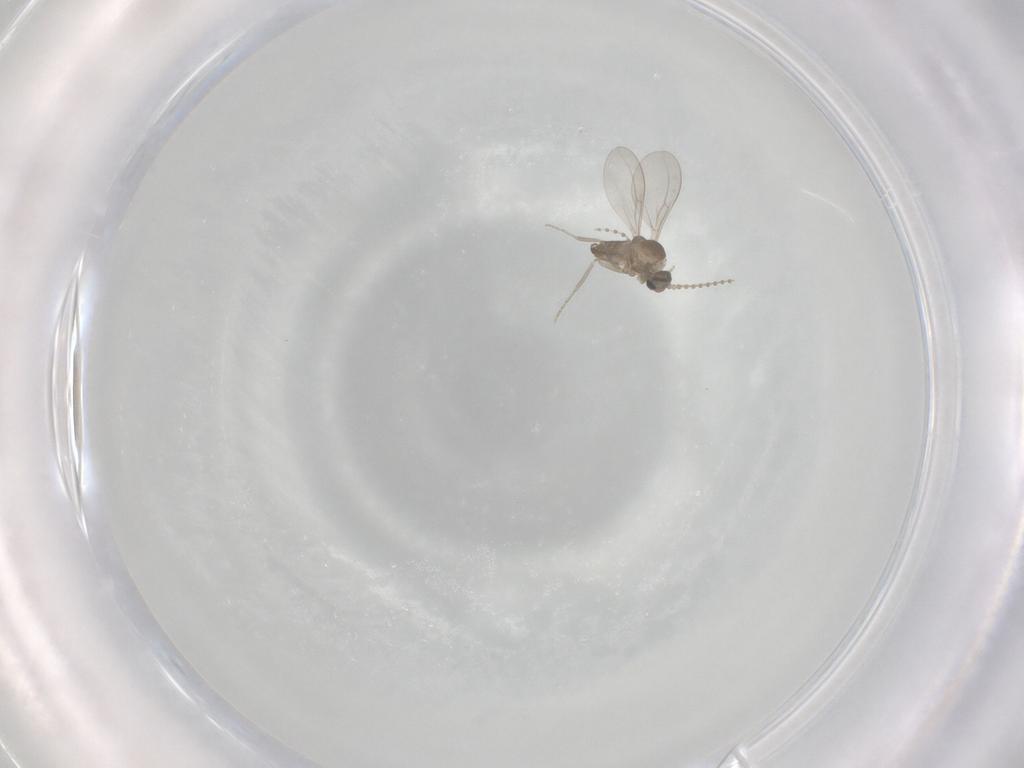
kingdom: Animalia
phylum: Arthropoda
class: Insecta
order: Diptera
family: Cecidomyiidae
